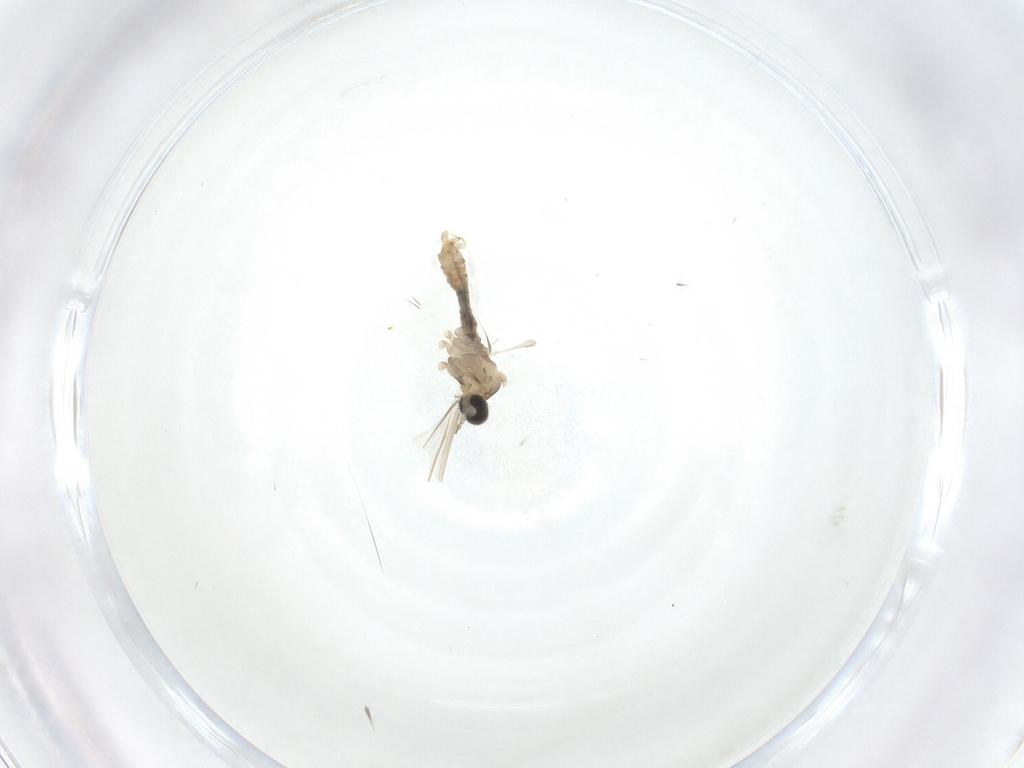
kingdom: Animalia
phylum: Arthropoda
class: Insecta
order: Diptera
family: Cecidomyiidae
